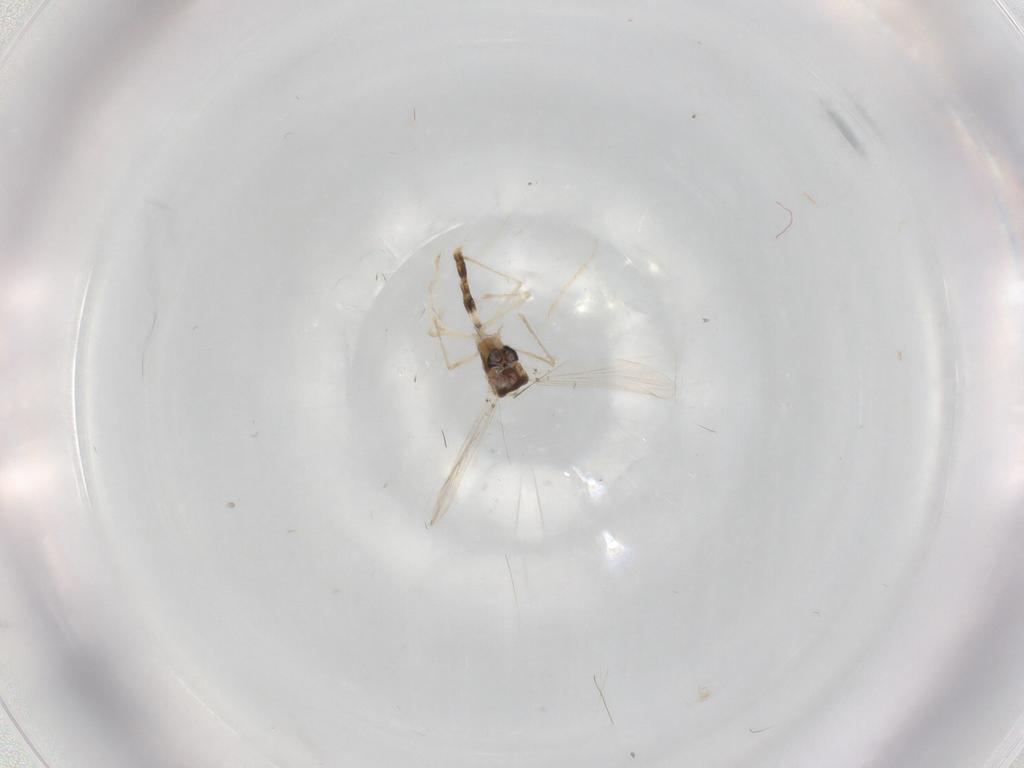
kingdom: Animalia
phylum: Arthropoda
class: Insecta
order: Diptera
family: Chironomidae
